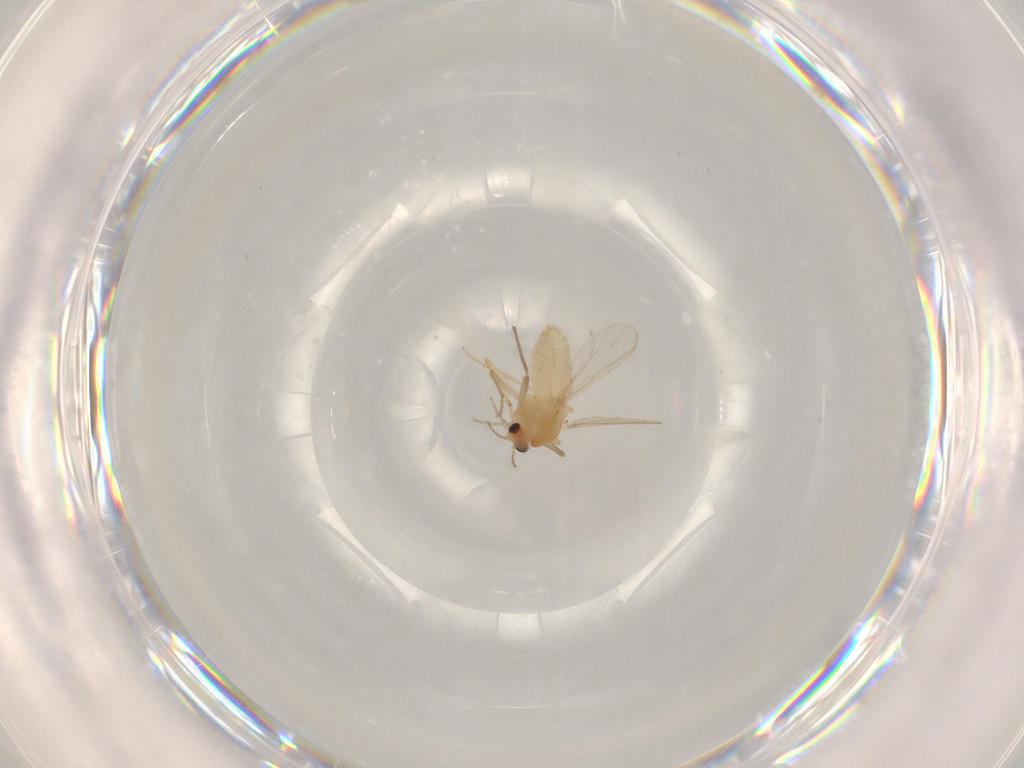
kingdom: Animalia
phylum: Arthropoda
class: Insecta
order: Diptera
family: Chironomidae
